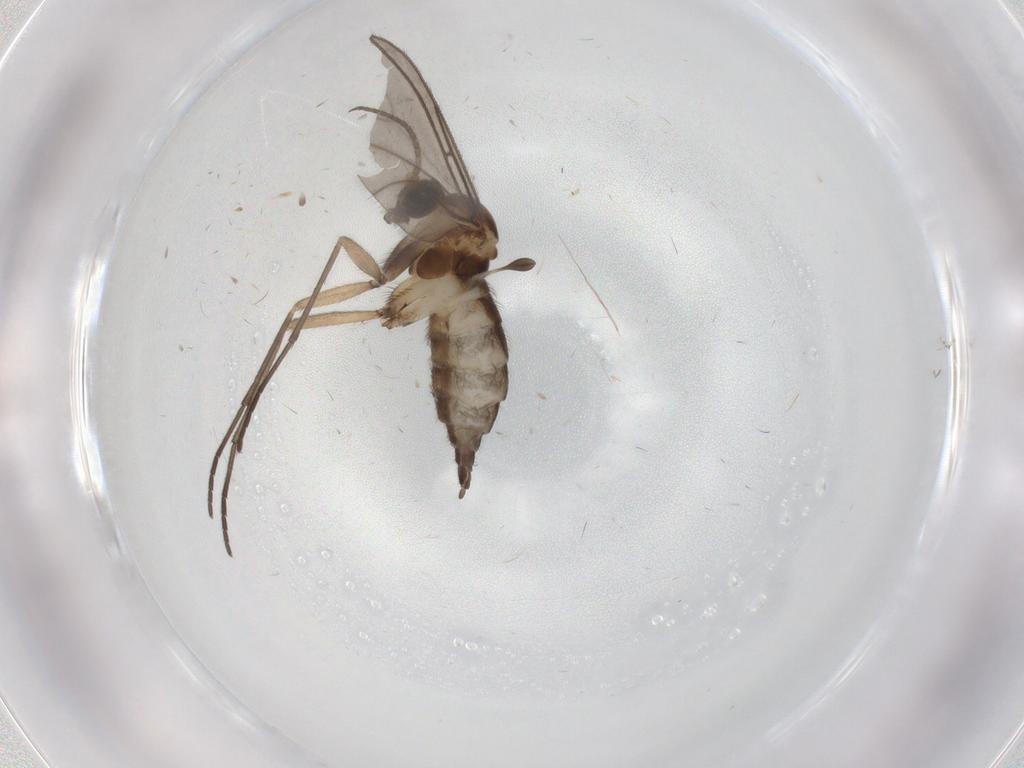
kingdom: Animalia
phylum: Arthropoda
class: Insecta
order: Diptera
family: Sciaridae
